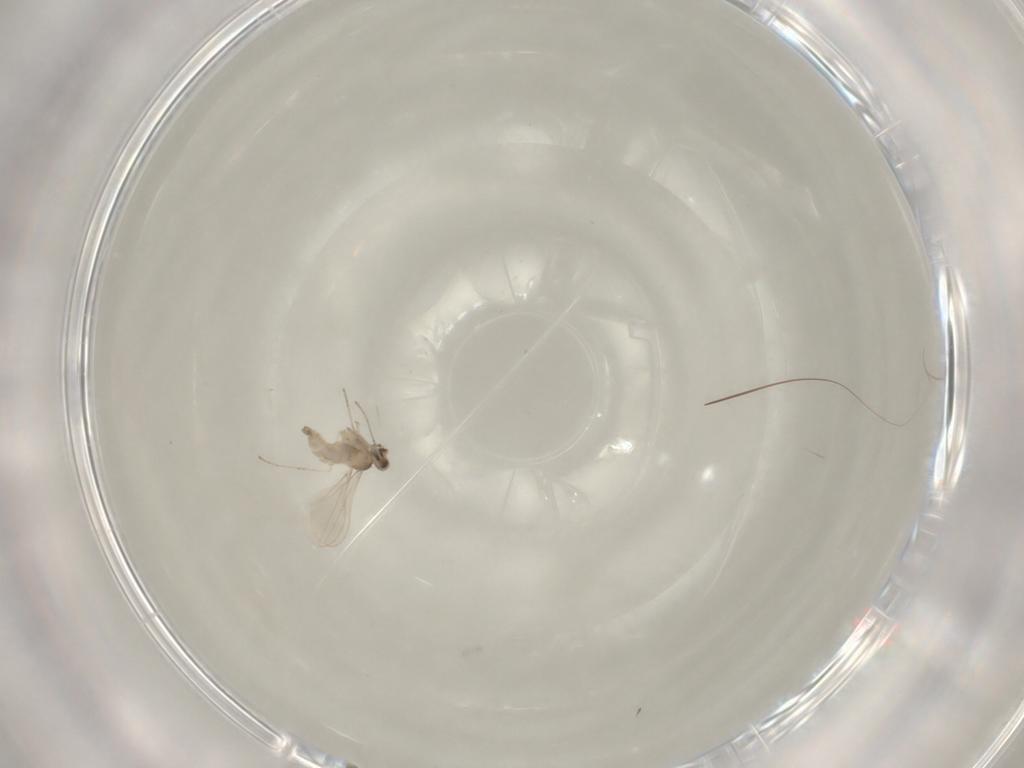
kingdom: Animalia
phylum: Arthropoda
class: Insecta
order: Diptera
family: Cecidomyiidae
